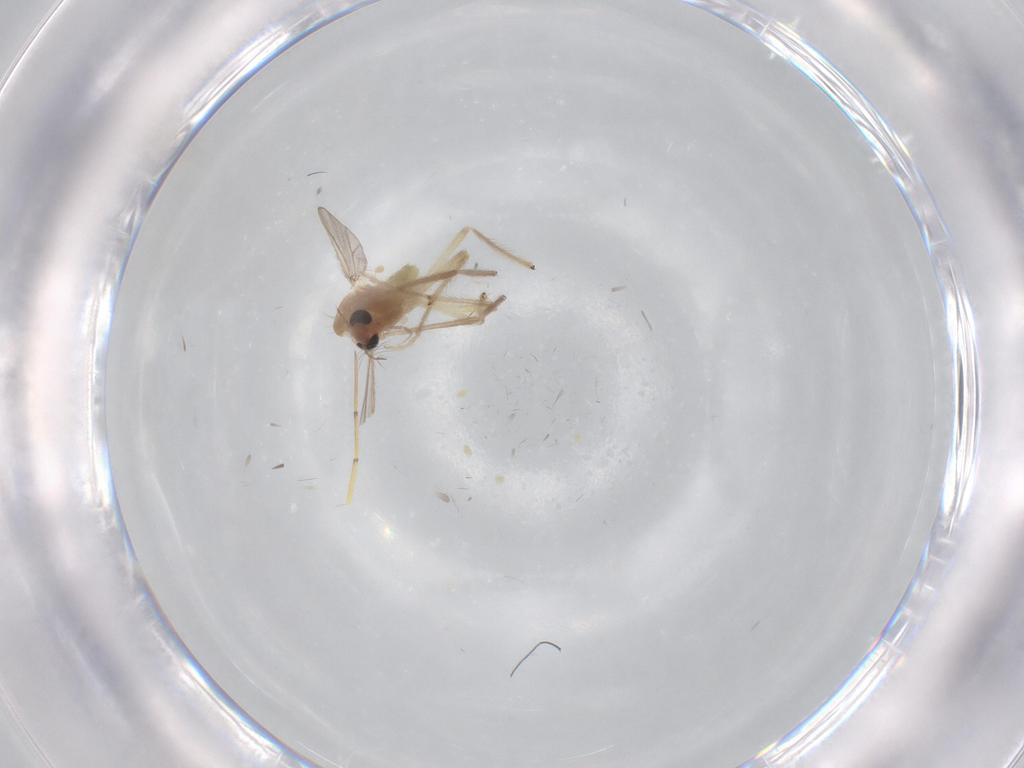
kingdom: Animalia
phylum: Arthropoda
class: Insecta
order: Diptera
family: Chironomidae
